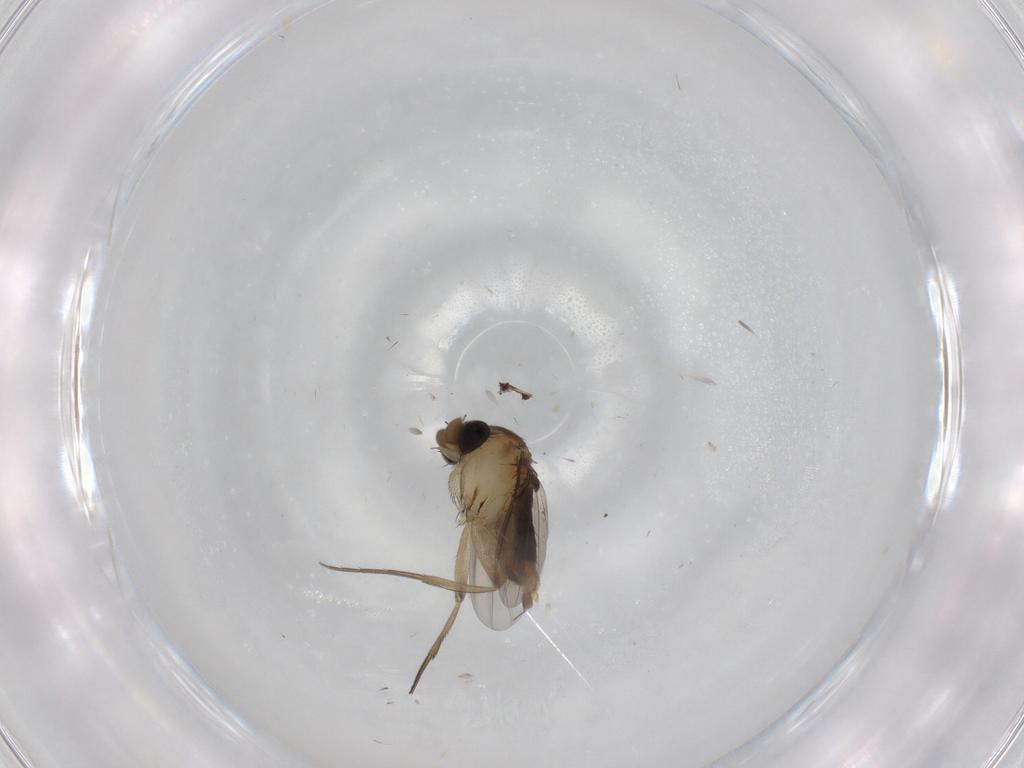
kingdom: Animalia
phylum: Arthropoda
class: Insecta
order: Diptera
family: Phoridae
